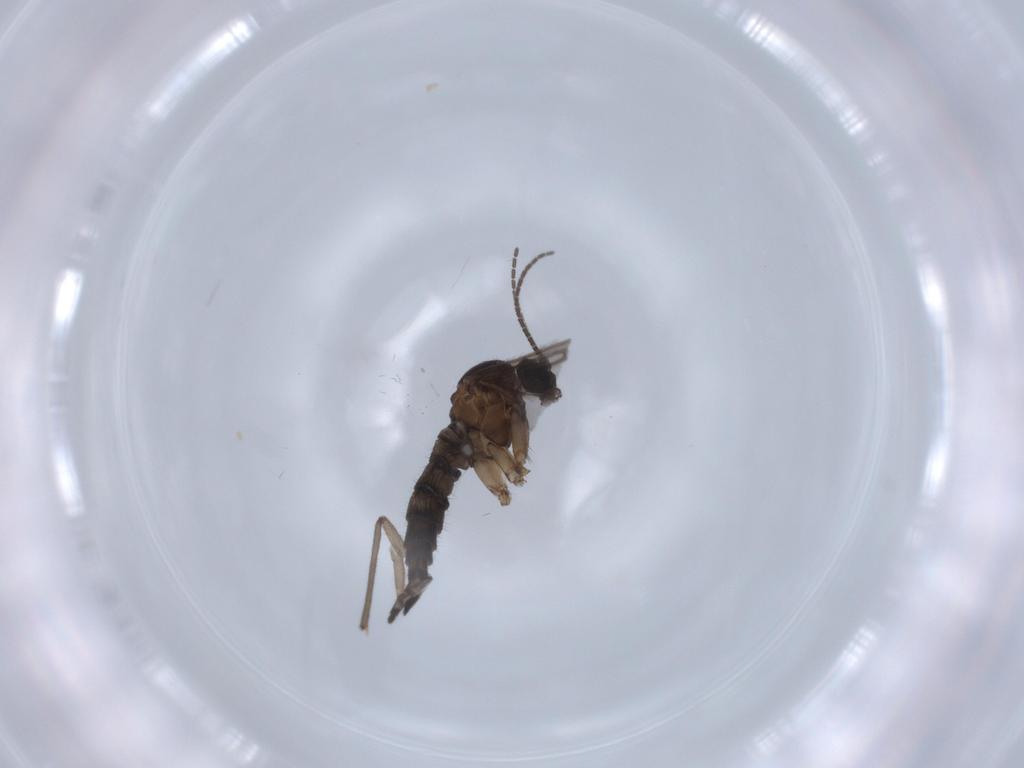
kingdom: Animalia
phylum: Arthropoda
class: Insecta
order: Diptera
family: Sciaridae
